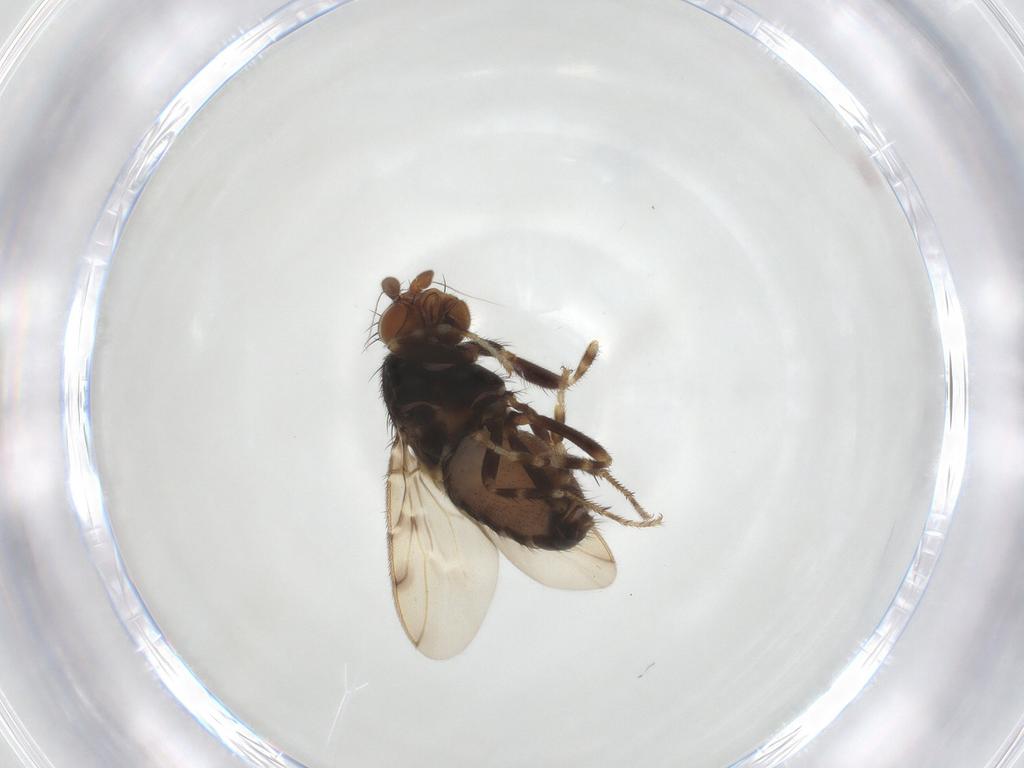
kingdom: Animalia
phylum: Arthropoda
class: Insecta
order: Diptera
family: Sphaeroceridae
